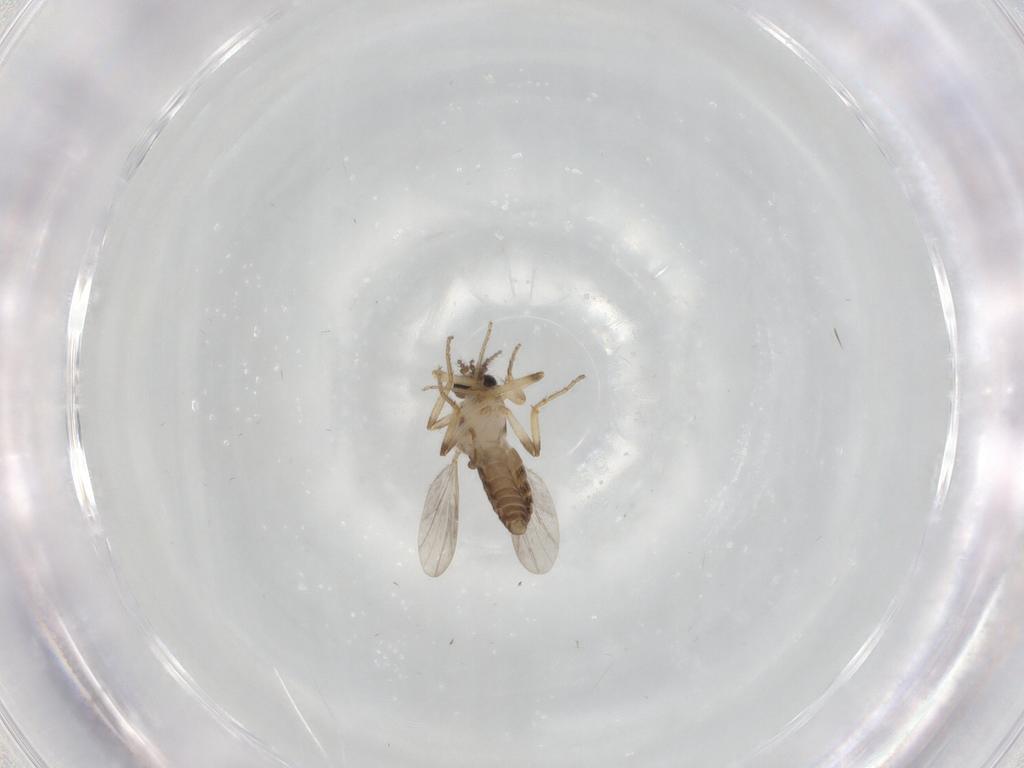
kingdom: Animalia
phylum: Arthropoda
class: Insecta
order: Diptera
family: Ceratopogonidae
